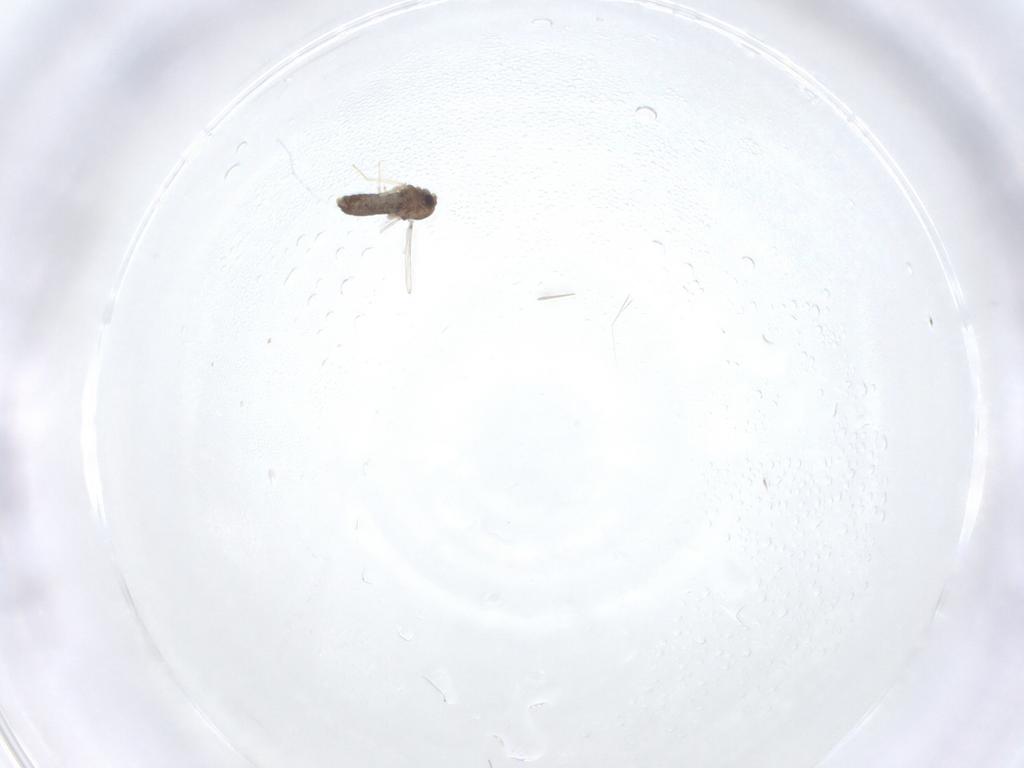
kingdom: Animalia
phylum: Arthropoda
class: Insecta
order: Diptera
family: Chironomidae
